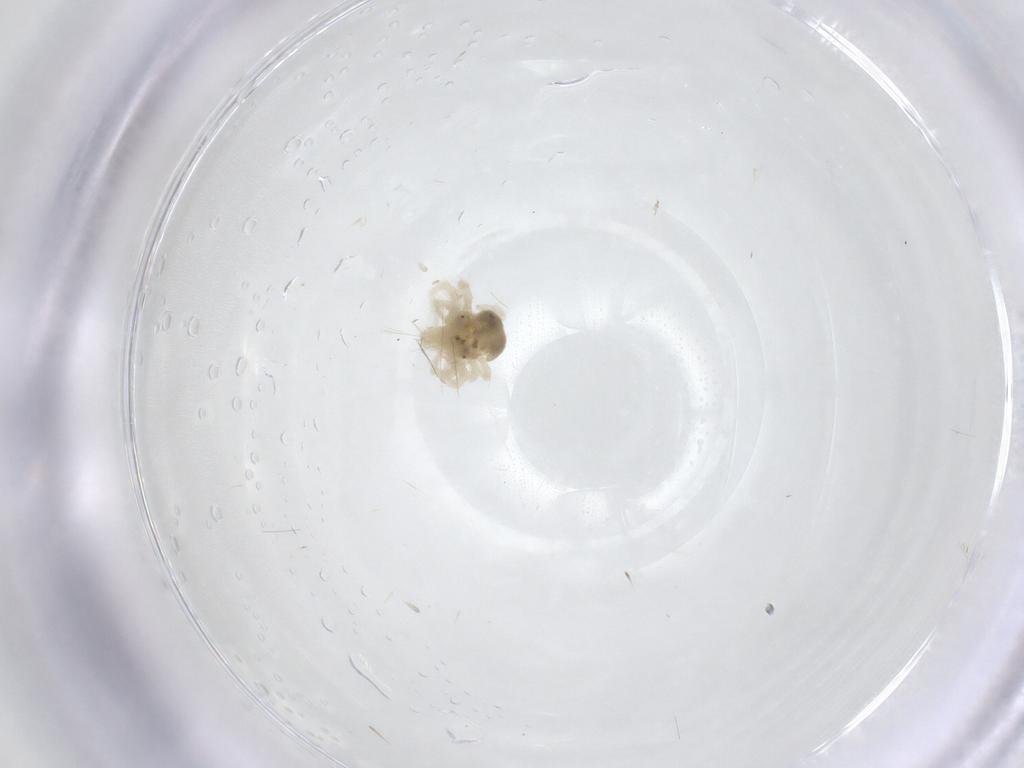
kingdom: Animalia
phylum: Arthropoda
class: Arachnida
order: Trombidiformes
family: Anystidae
